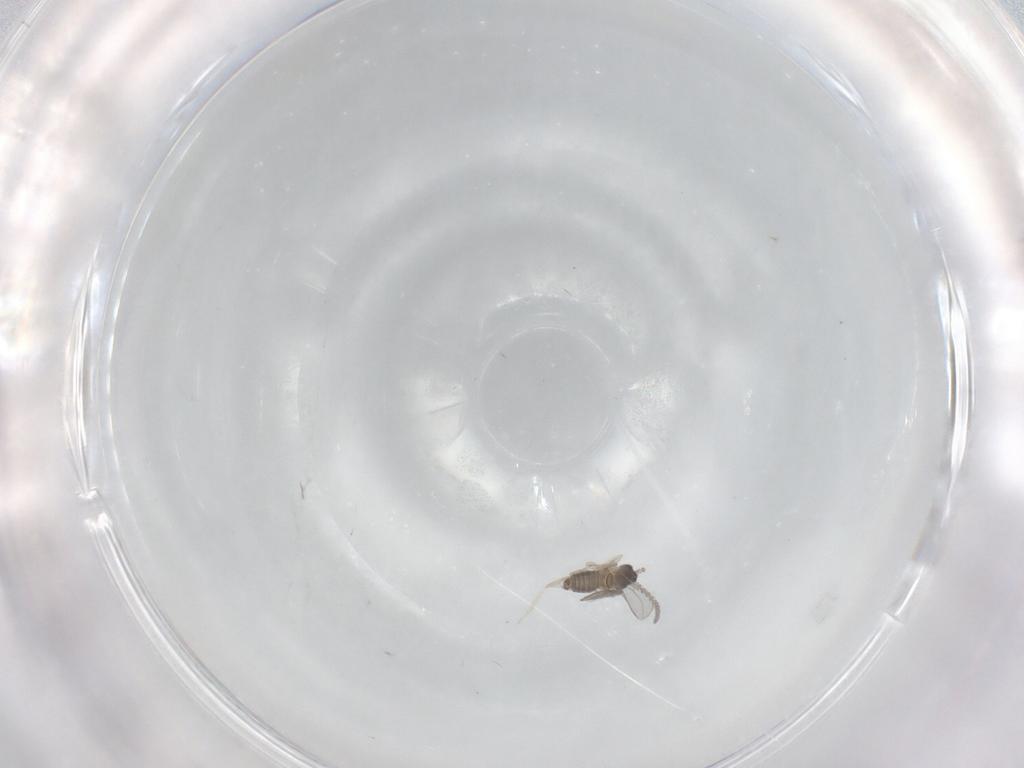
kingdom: Animalia
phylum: Arthropoda
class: Insecta
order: Diptera
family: Cecidomyiidae
